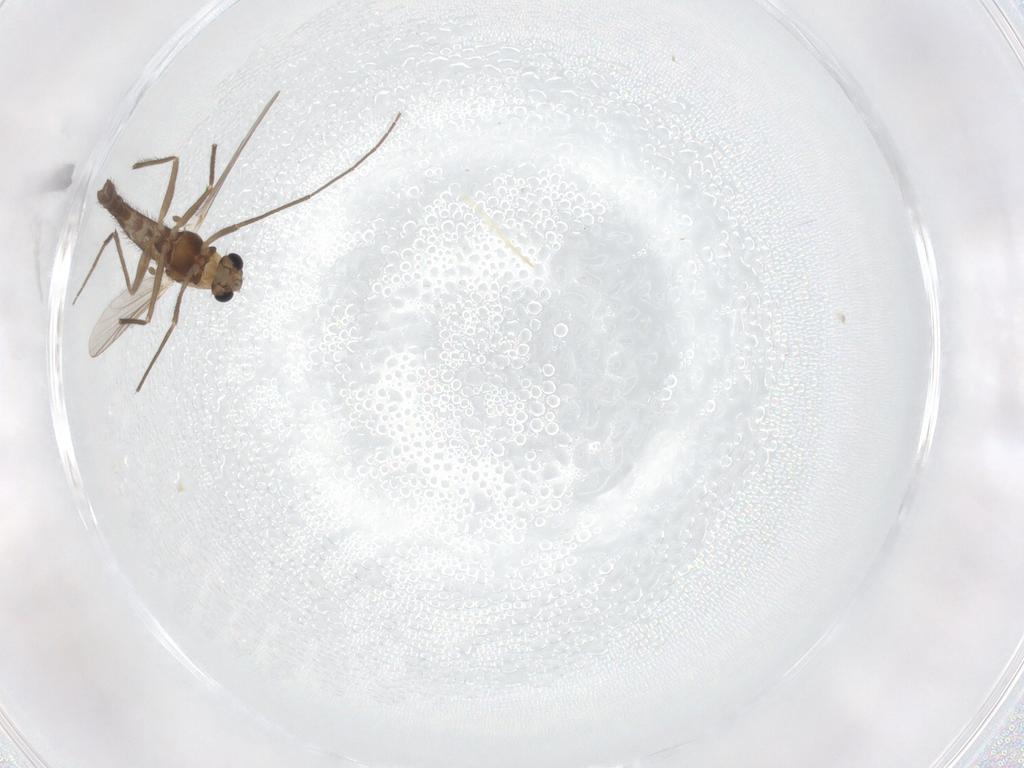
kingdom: Animalia
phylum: Arthropoda
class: Insecta
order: Diptera
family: Chironomidae
